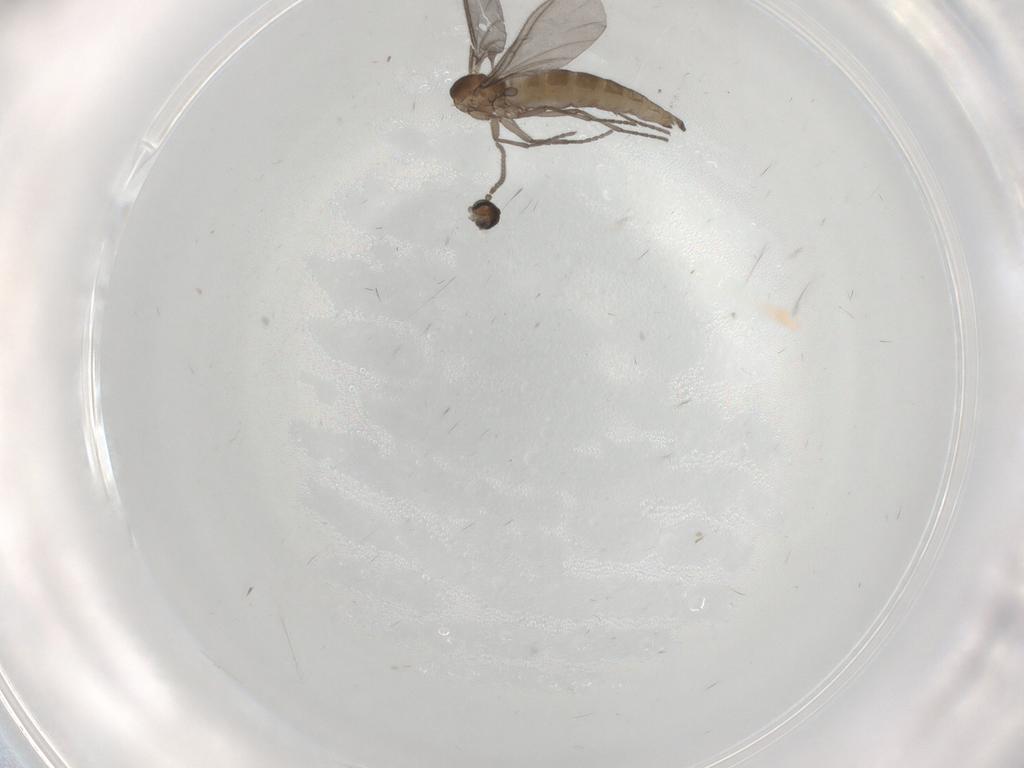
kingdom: Animalia
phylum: Arthropoda
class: Insecta
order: Diptera
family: Sciaridae
